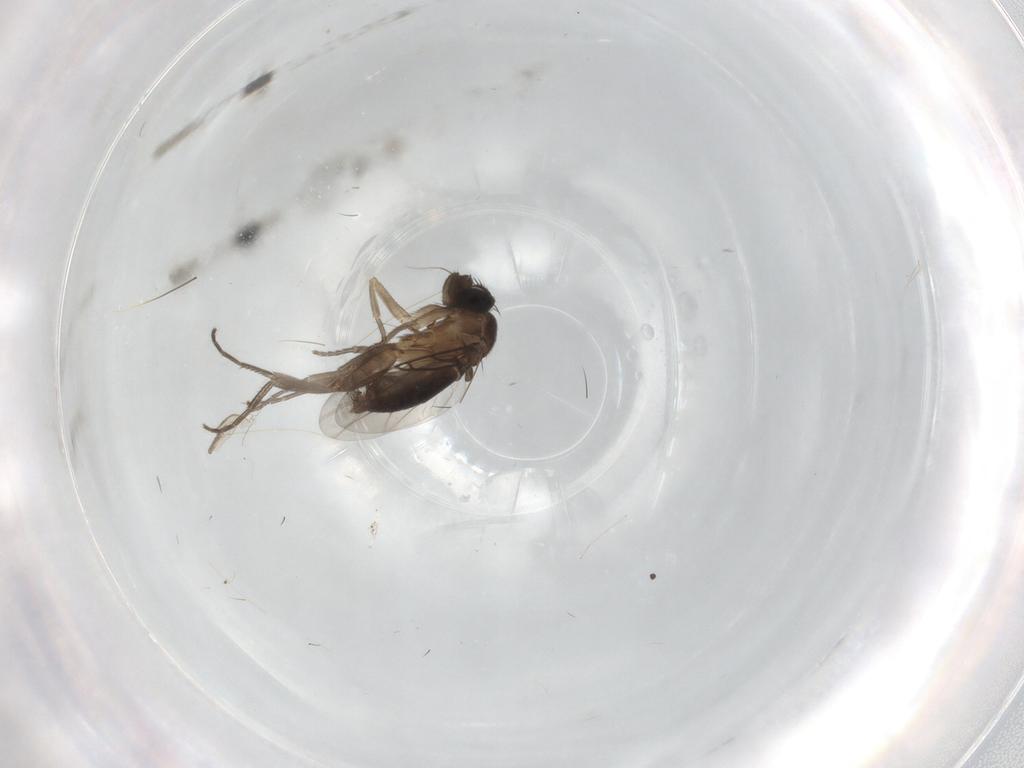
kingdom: Animalia
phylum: Arthropoda
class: Insecta
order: Diptera
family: Phoridae
